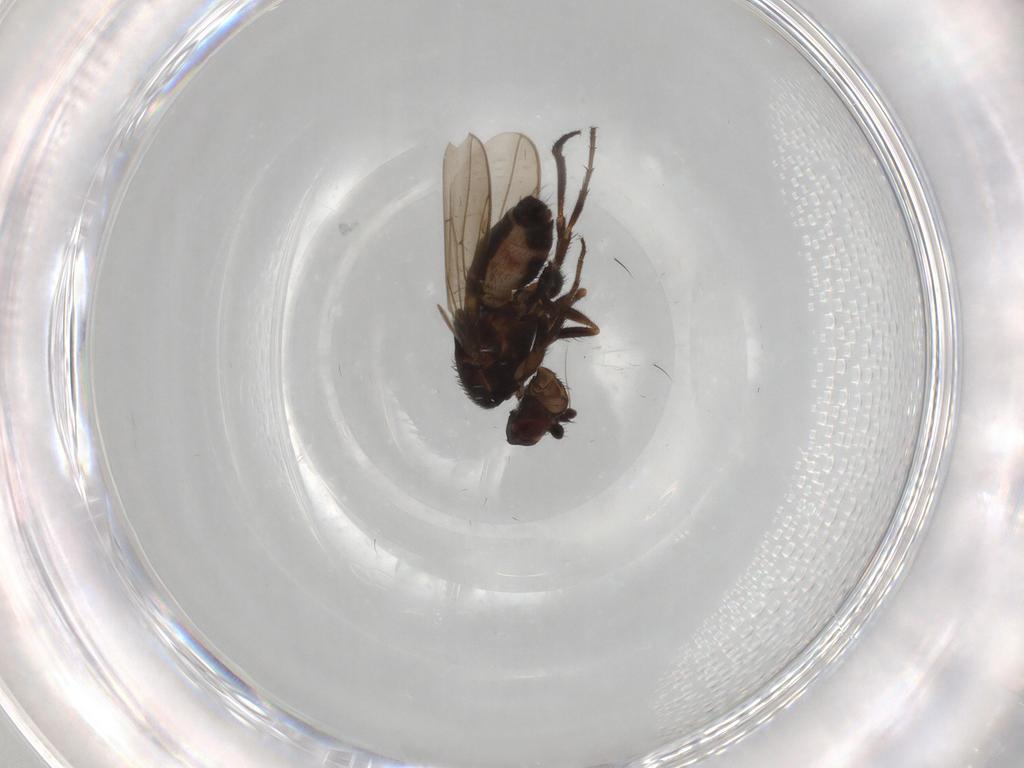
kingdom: Animalia
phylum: Arthropoda
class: Insecta
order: Diptera
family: Sphaeroceridae
